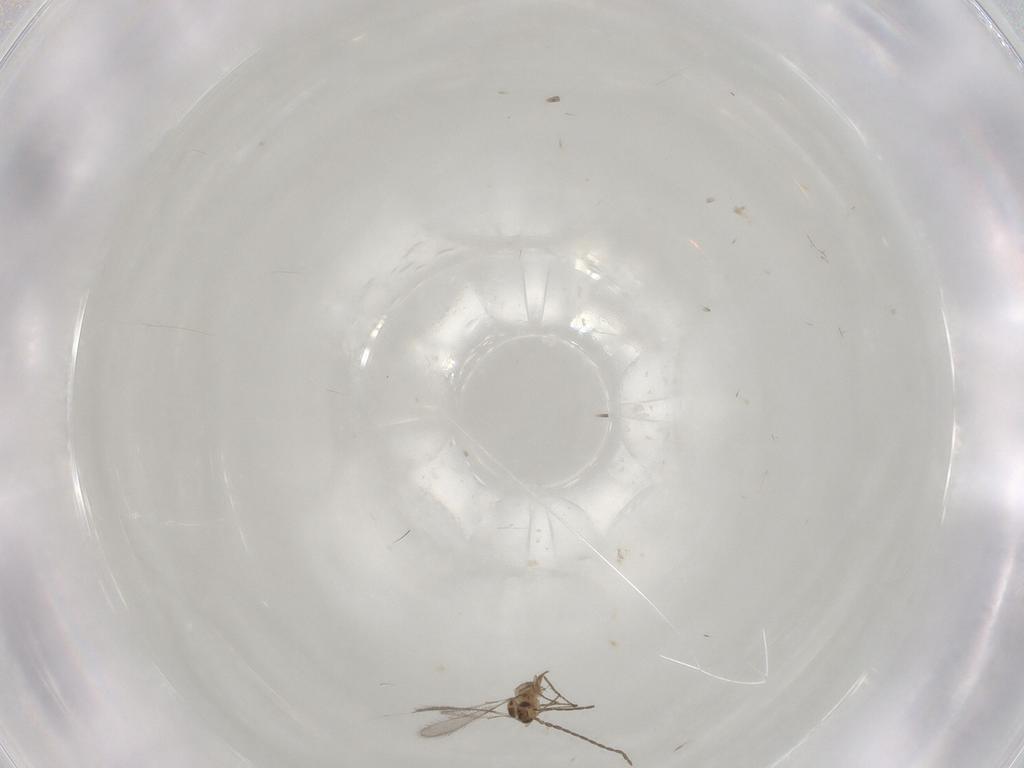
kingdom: Animalia
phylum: Arthropoda
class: Insecta
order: Hymenoptera
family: Mymaridae
